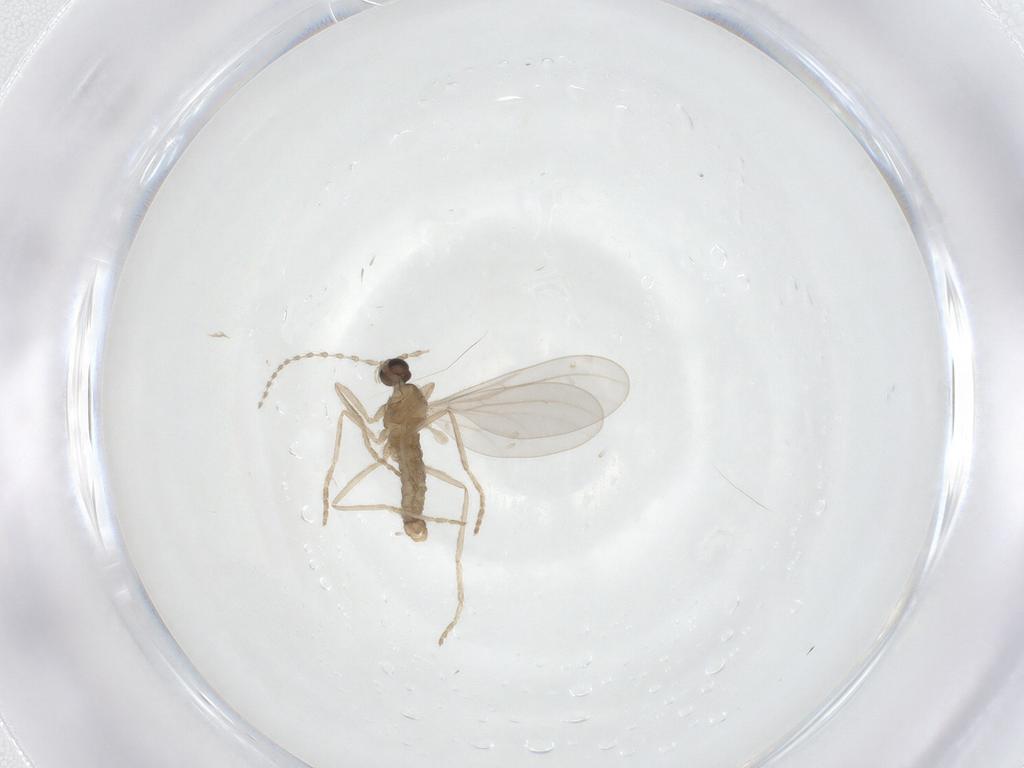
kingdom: Animalia
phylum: Arthropoda
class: Insecta
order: Diptera
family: Cecidomyiidae
